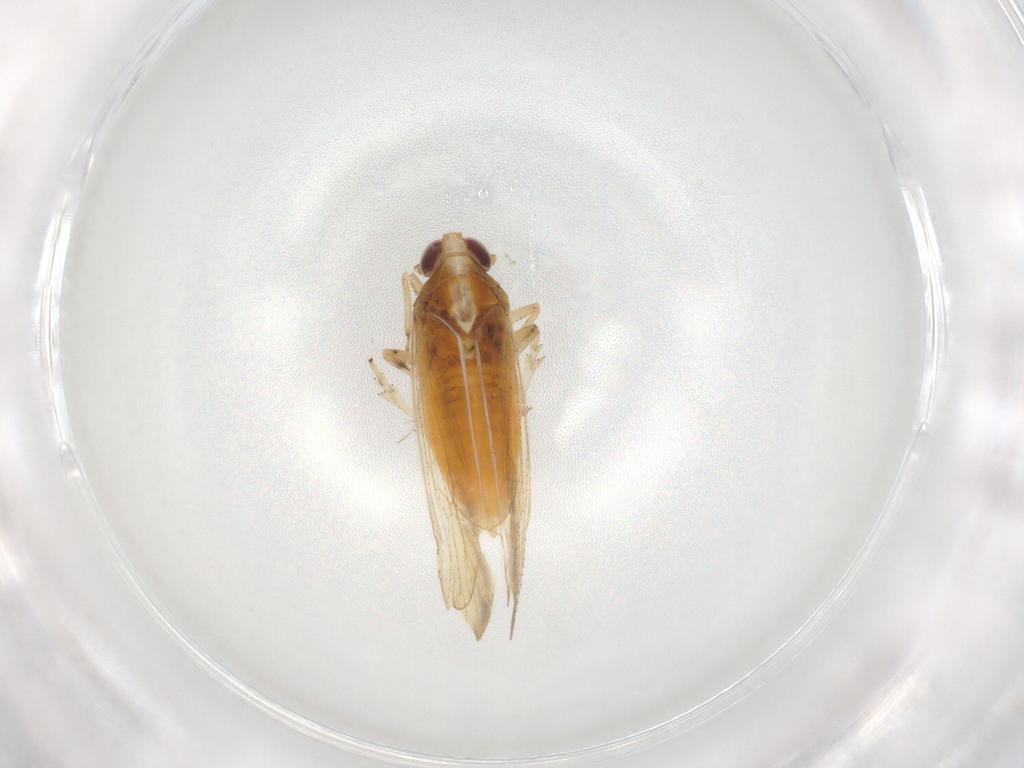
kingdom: Animalia
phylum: Arthropoda
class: Insecta
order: Hemiptera
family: Delphacidae
